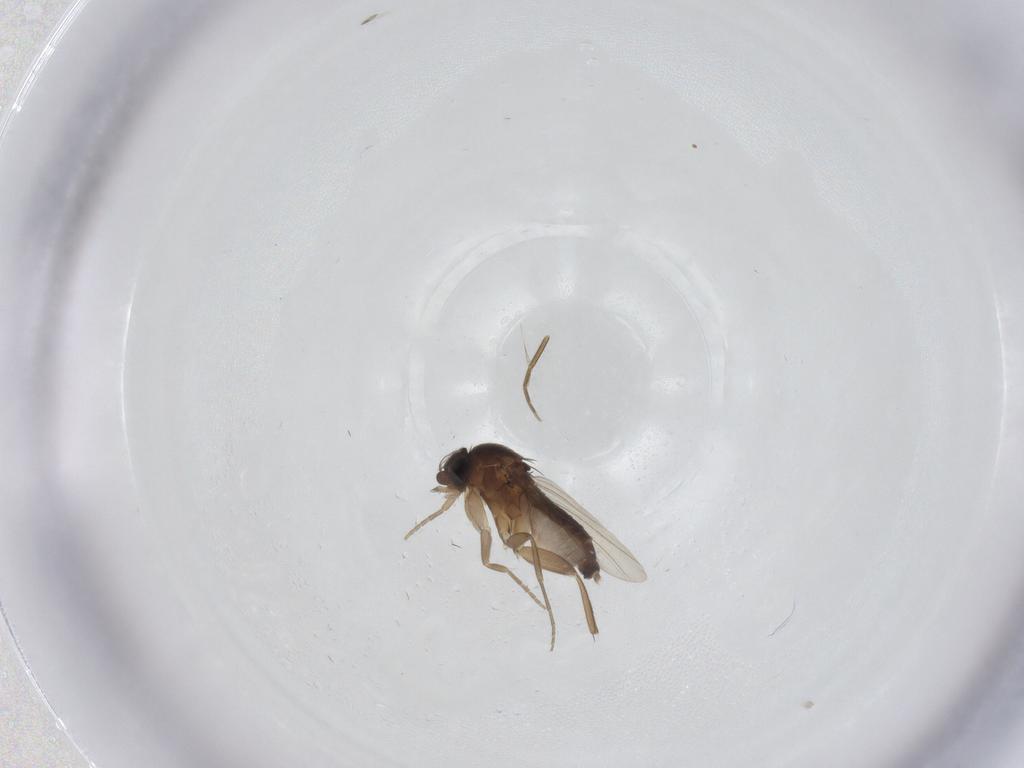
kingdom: Animalia
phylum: Arthropoda
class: Insecta
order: Diptera
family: Phoridae
